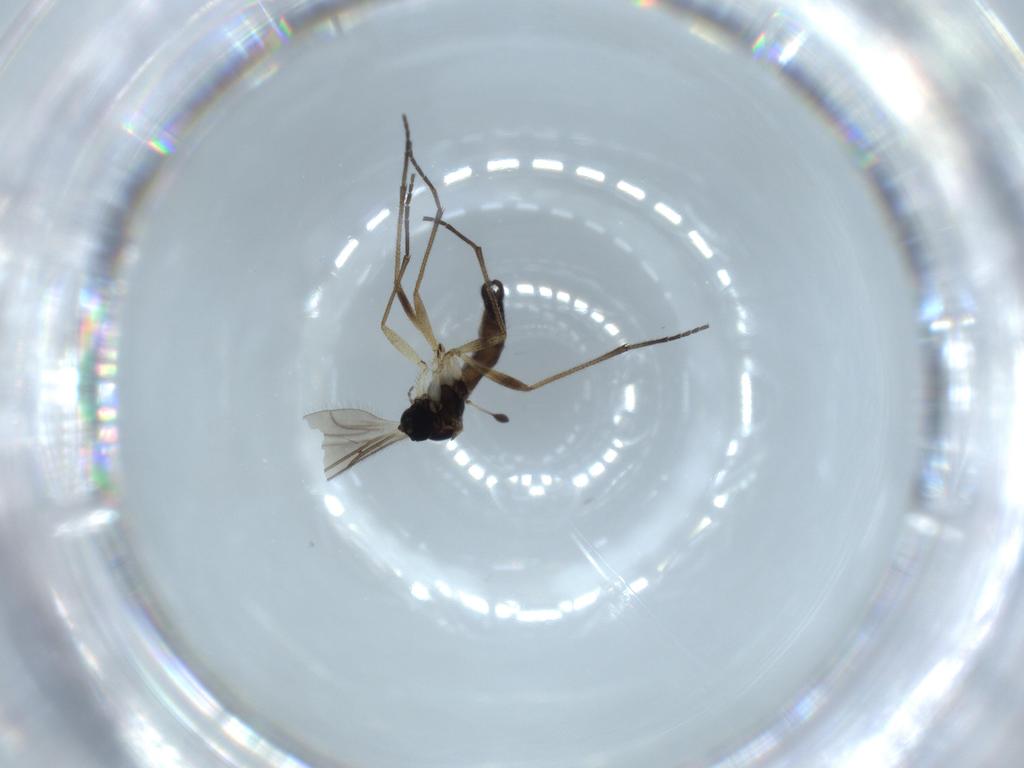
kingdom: Animalia
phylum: Arthropoda
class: Insecta
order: Diptera
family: Sciaridae
